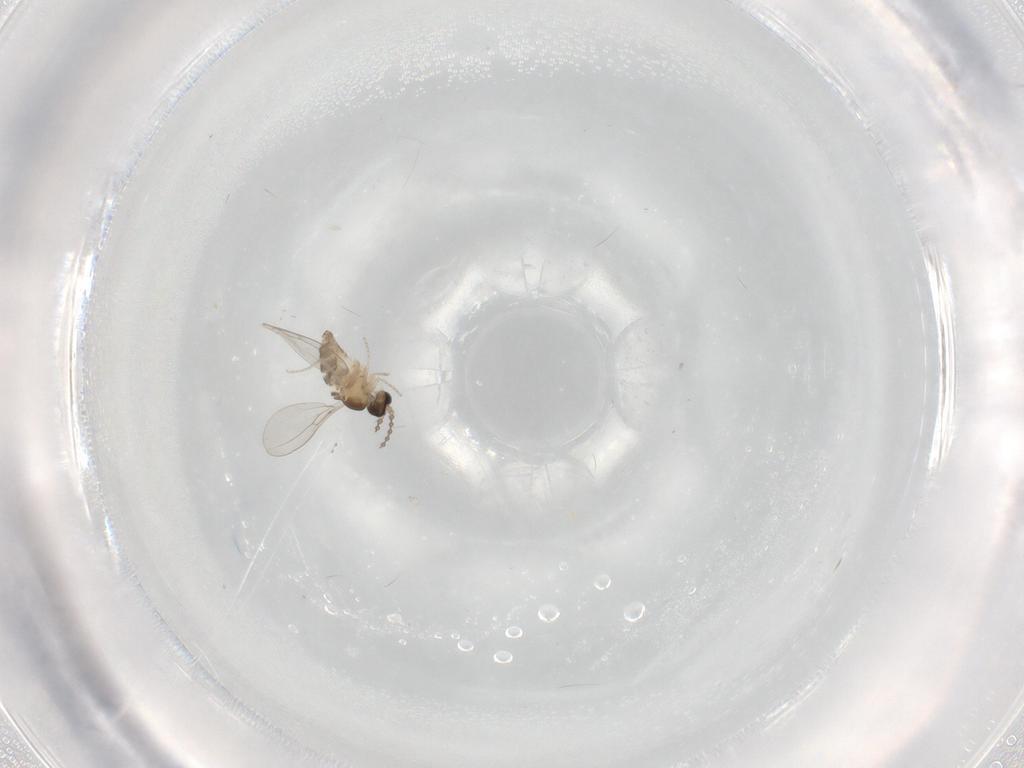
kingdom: Animalia
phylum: Arthropoda
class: Insecta
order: Diptera
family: Cecidomyiidae
